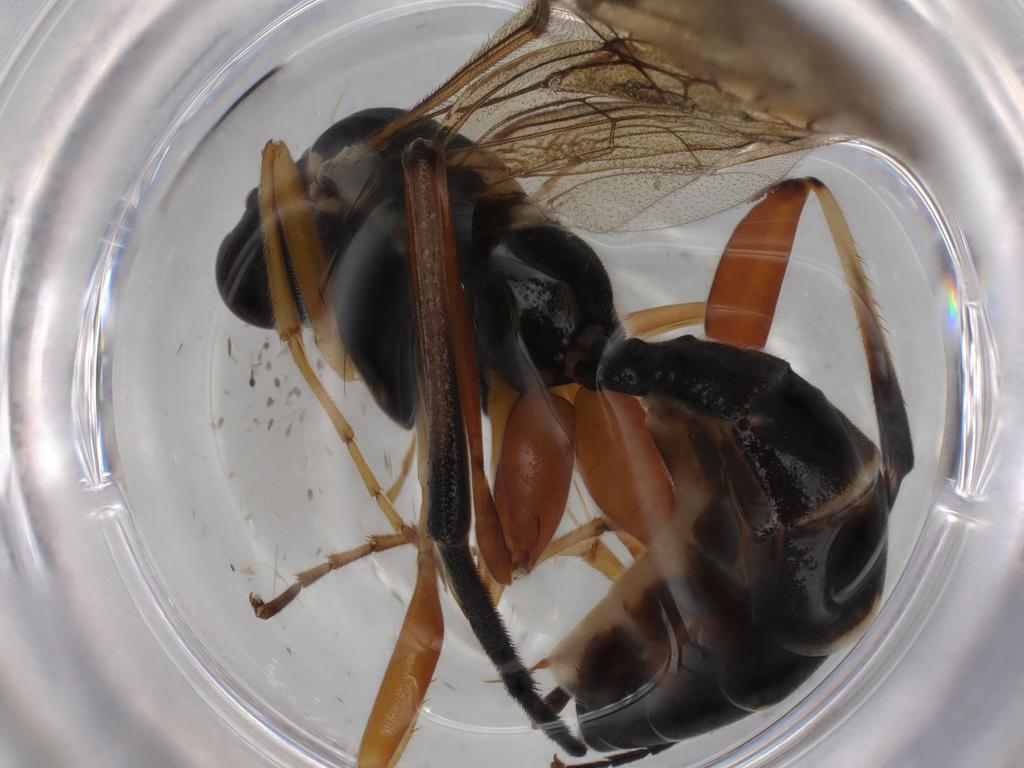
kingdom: Animalia
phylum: Arthropoda
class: Insecta
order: Hymenoptera
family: Ichneumonidae
